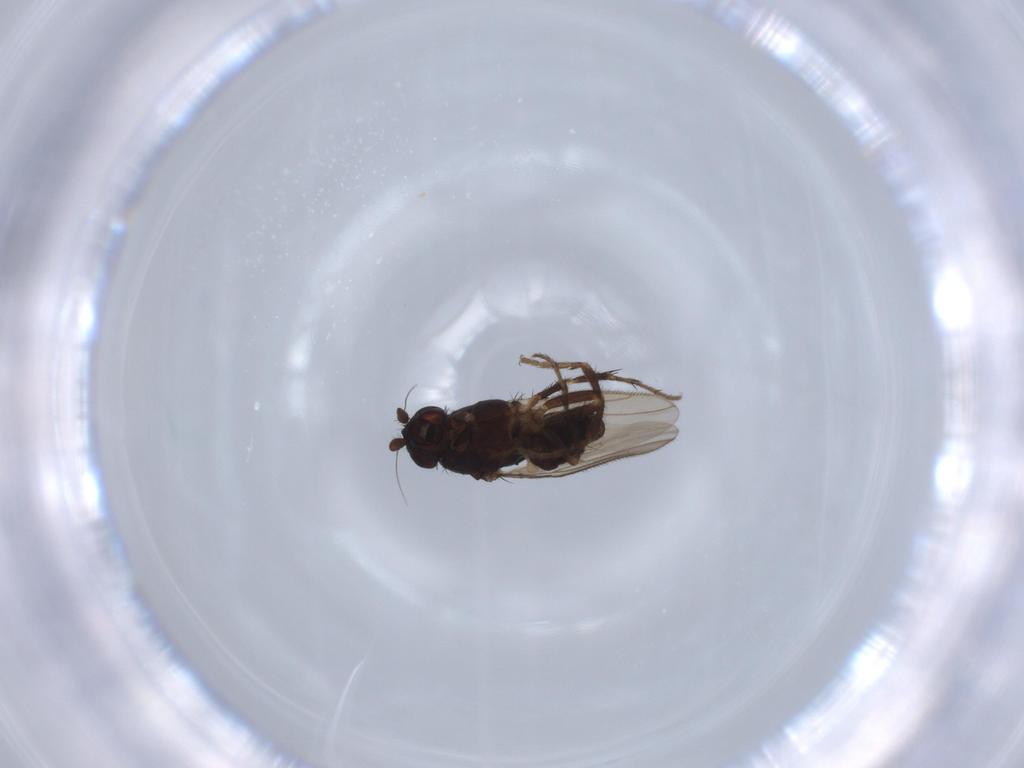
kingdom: Animalia
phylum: Arthropoda
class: Insecta
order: Diptera
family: Sphaeroceridae
